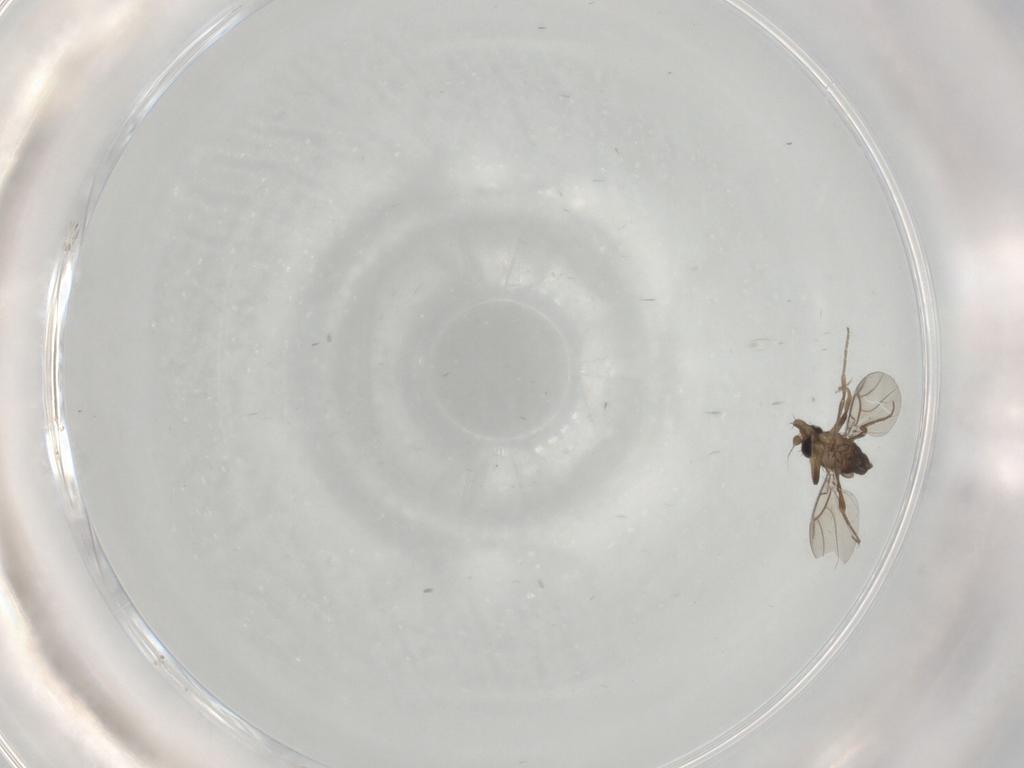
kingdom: Animalia
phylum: Arthropoda
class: Insecta
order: Diptera
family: Phoridae
